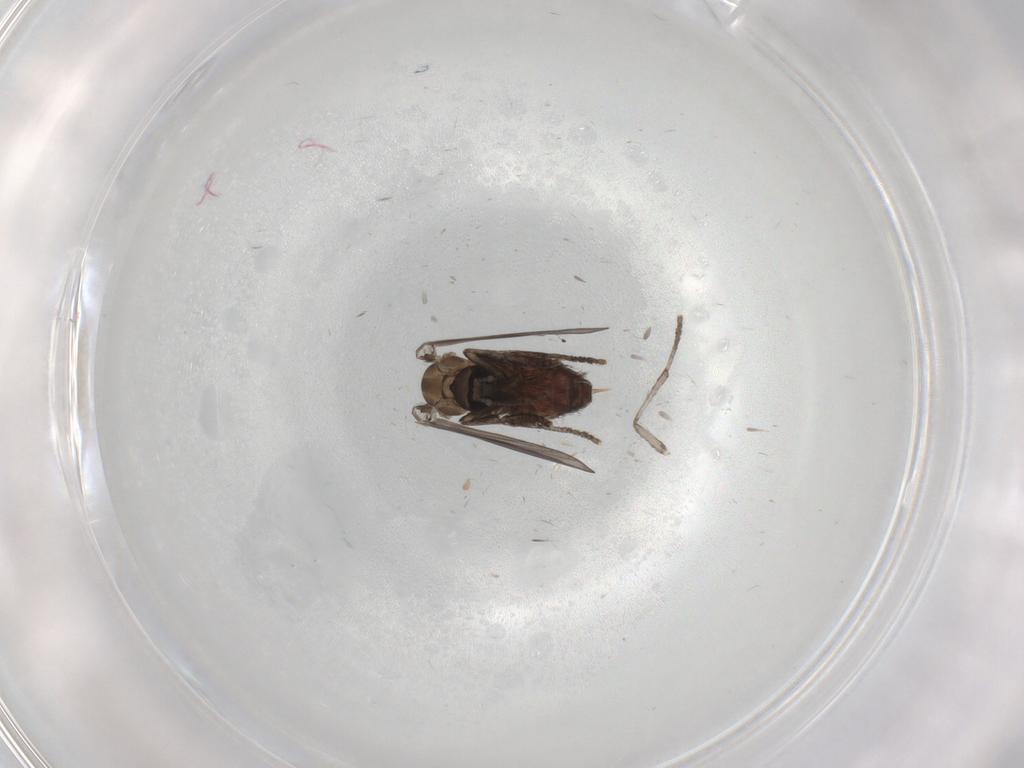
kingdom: Animalia
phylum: Arthropoda
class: Insecta
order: Diptera
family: Psychodidae
